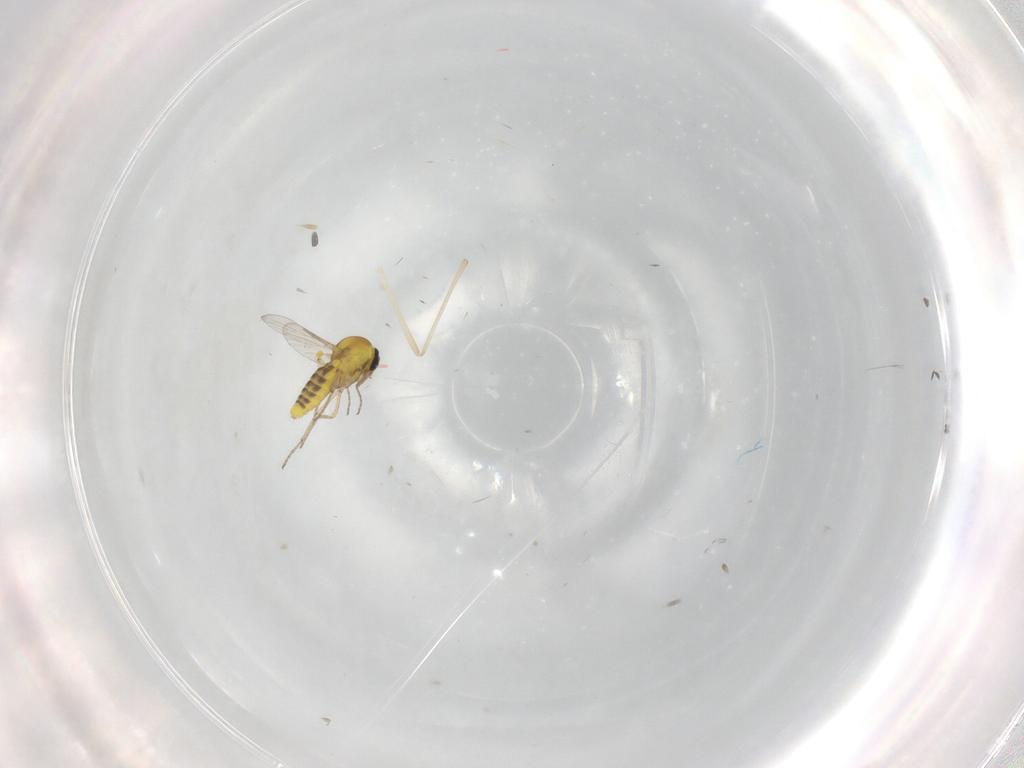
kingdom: Animalia
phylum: Arthropoda
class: Insecta
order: Diptera
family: Ceratopogonidae
